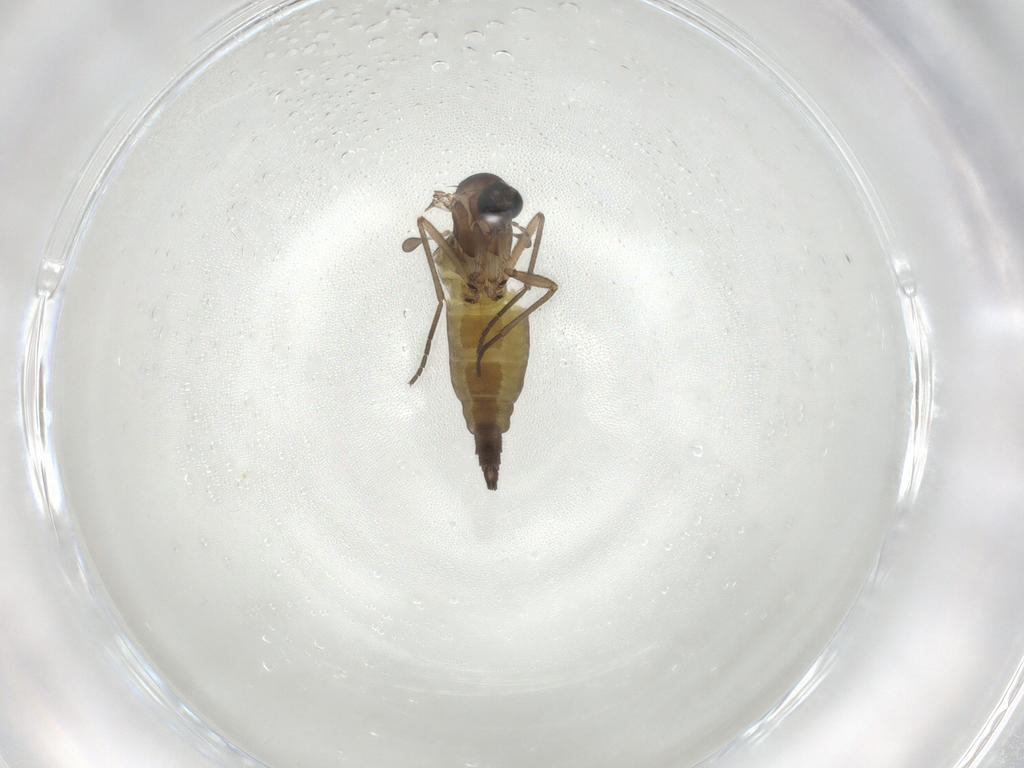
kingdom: Animalia
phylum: Arthropoda
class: Insecta
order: Diptera
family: Sciaridae
